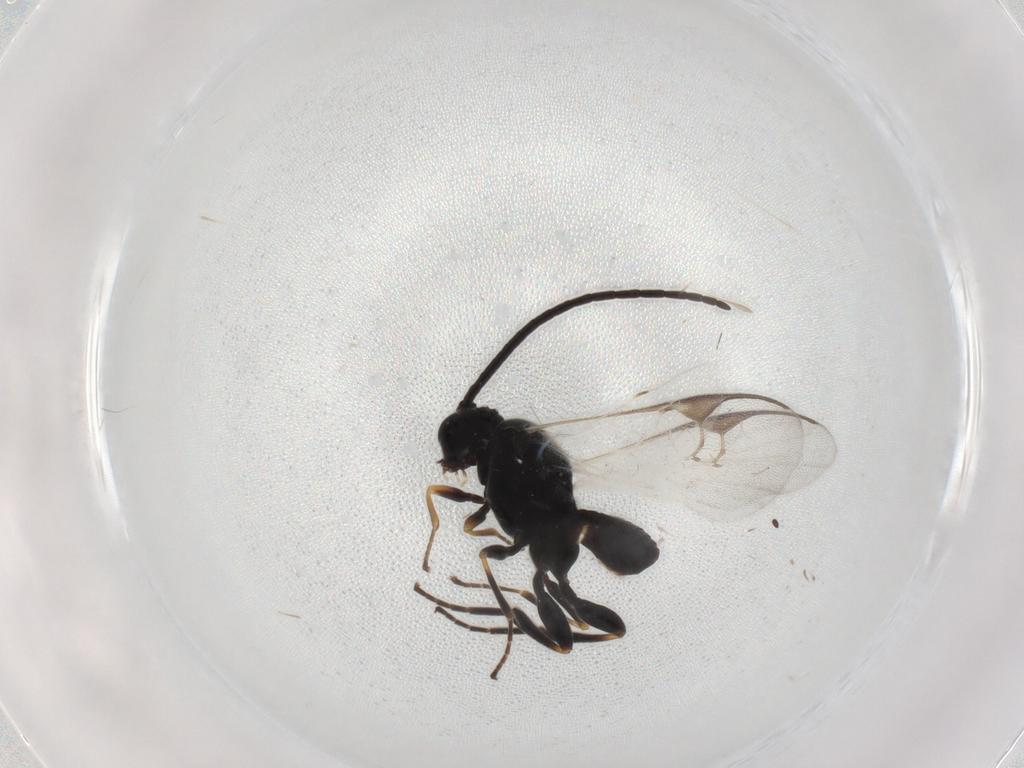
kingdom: Animalia
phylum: Arthropoda
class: Insecta
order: Hymenoptera
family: Braconidae
